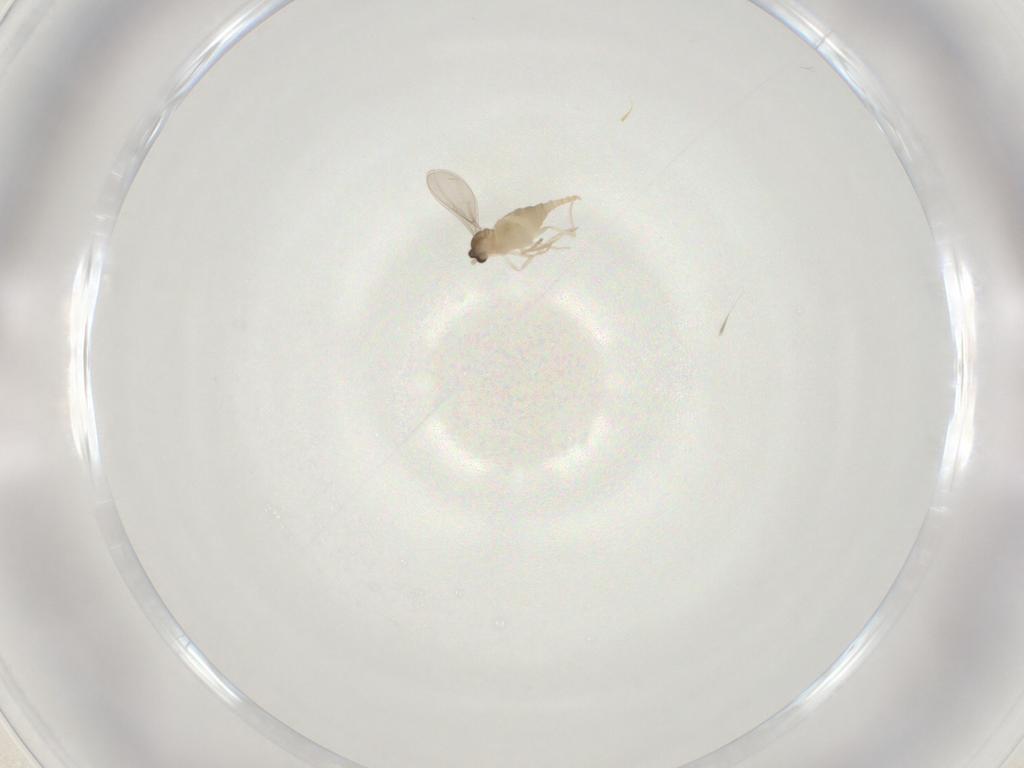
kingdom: Animalia
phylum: Arthropoda
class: Insecta
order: Diptera
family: Cecidomyiidae
